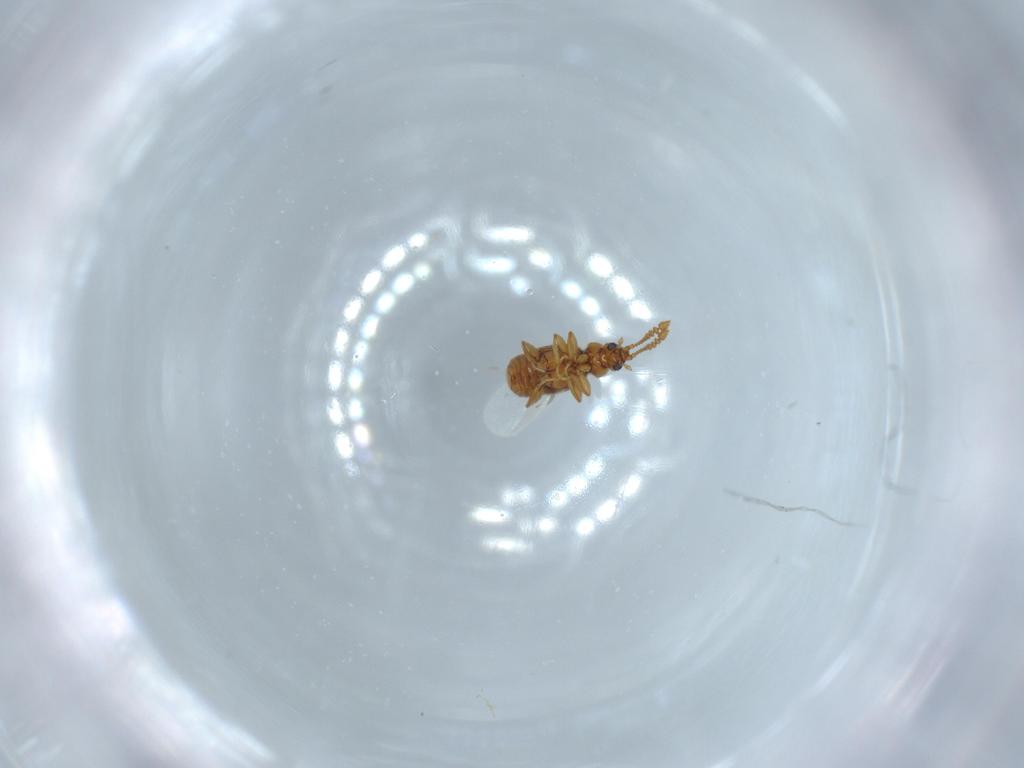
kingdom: Animalia
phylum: Arthropoda
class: Insecta
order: Coleoptera
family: Staphylinidae
